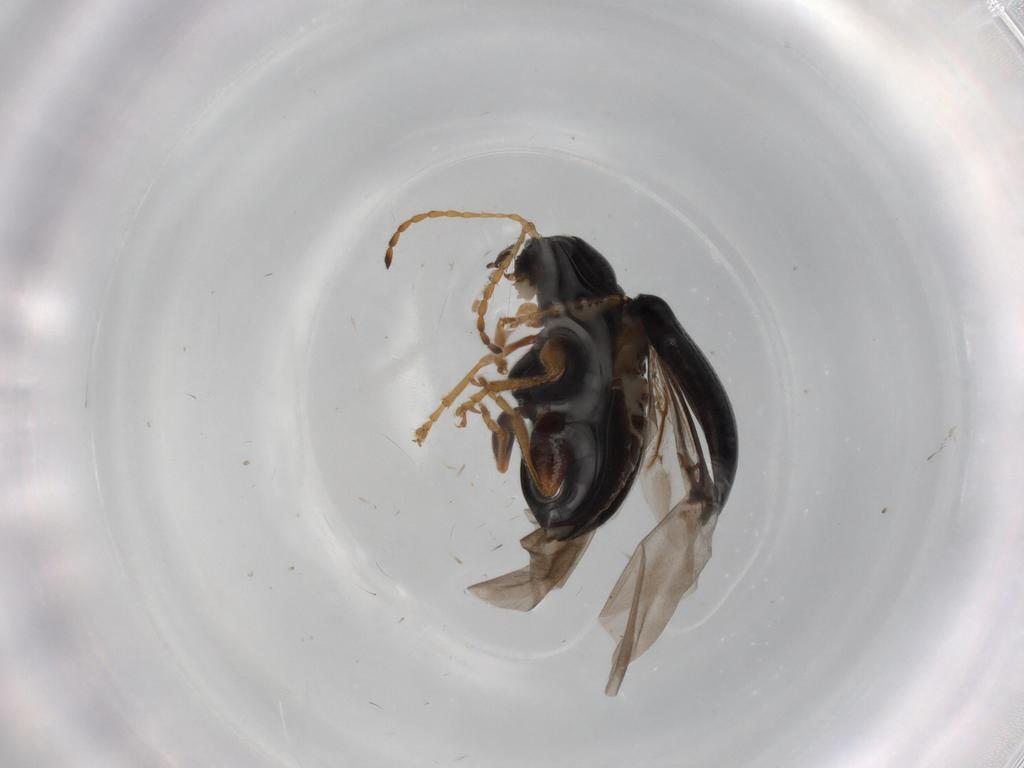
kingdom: Animalia
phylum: Arthropoda
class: Insecta
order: Coleoptera
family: Chrysomelidae
